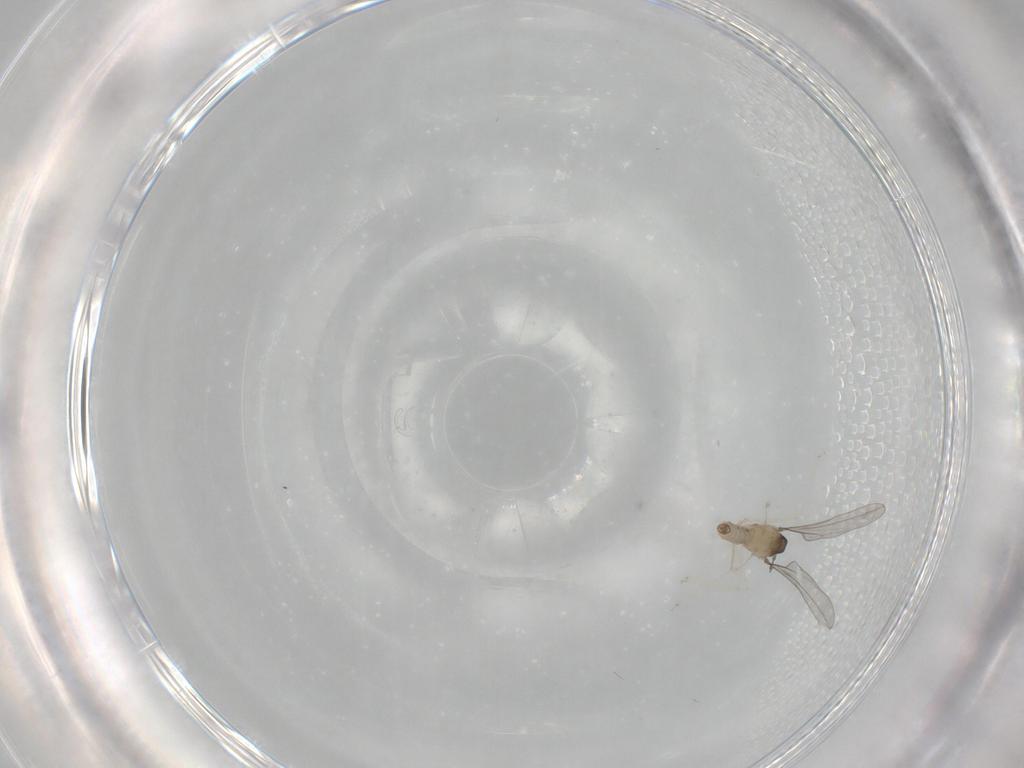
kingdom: Animalia
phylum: Arthropoda
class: Insecta
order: Diptera
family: Cecidomyiidae
